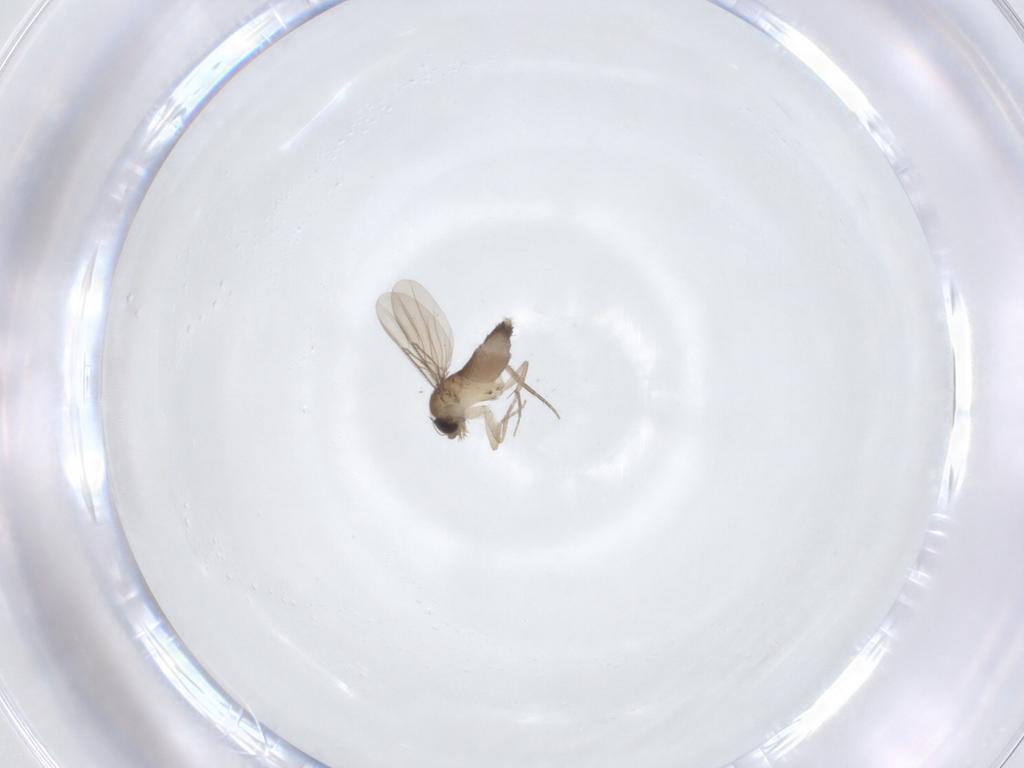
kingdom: Animalia
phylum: Arthropoda
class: Insecta
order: Diptera
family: Phoridae
